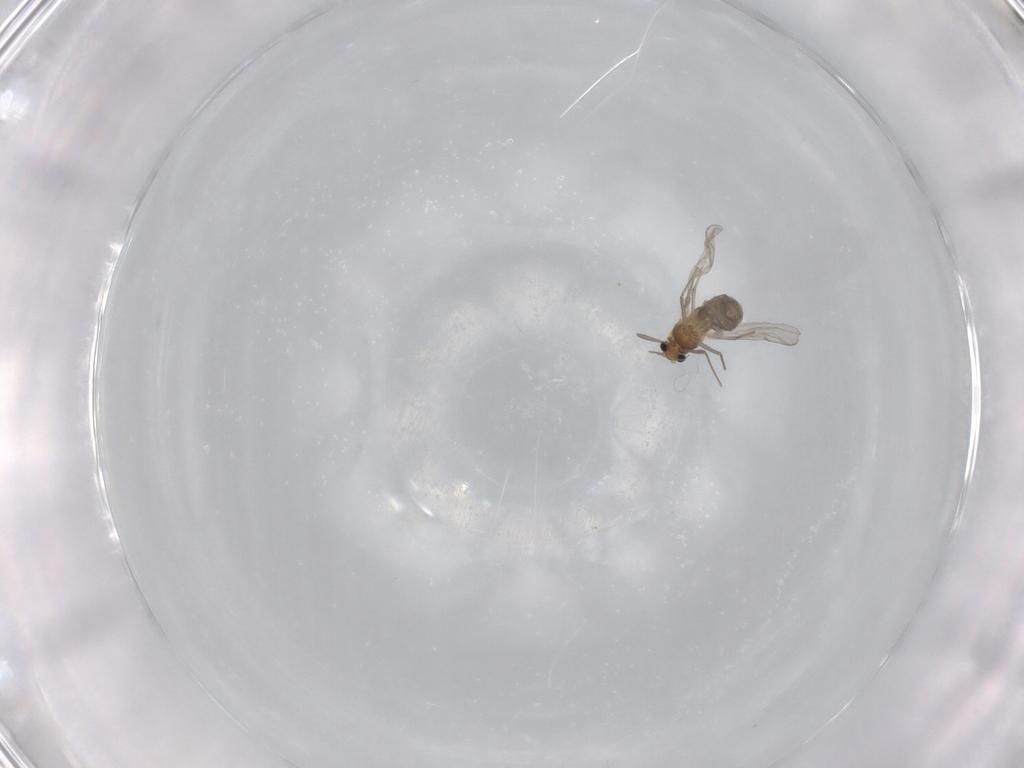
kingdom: Animalia
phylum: Arthropoda
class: Insecta
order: Diptera
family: Chironomidae
